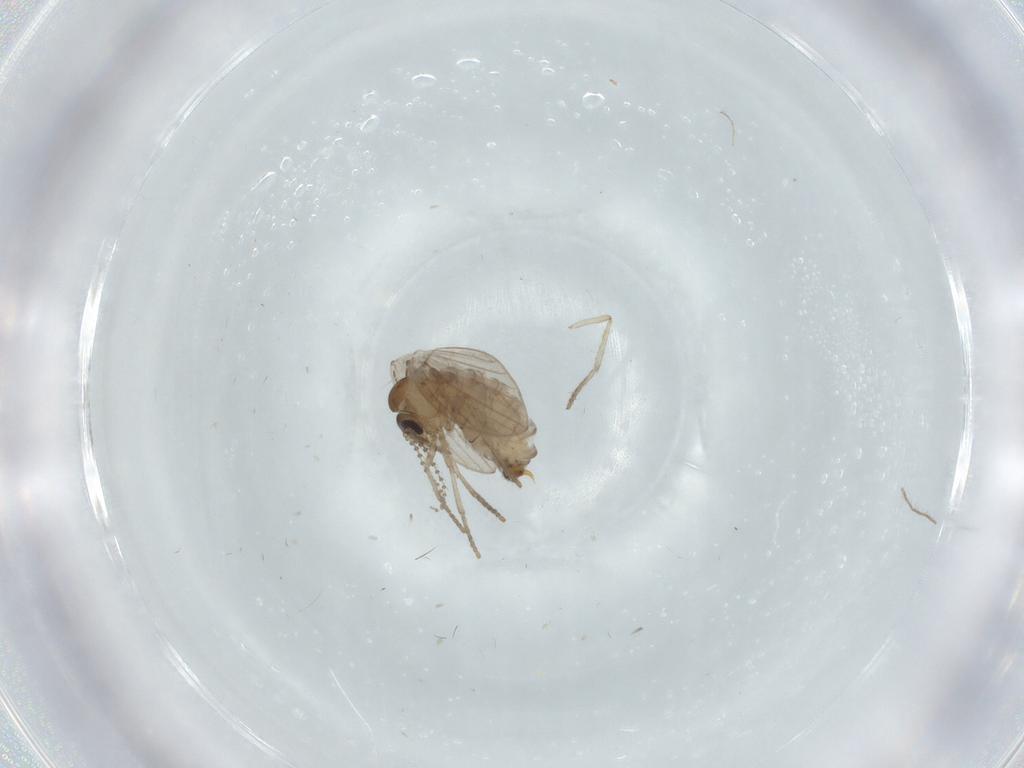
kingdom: Animalia
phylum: Arthropoda
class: Insecta
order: Diptera
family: Psychodidae
